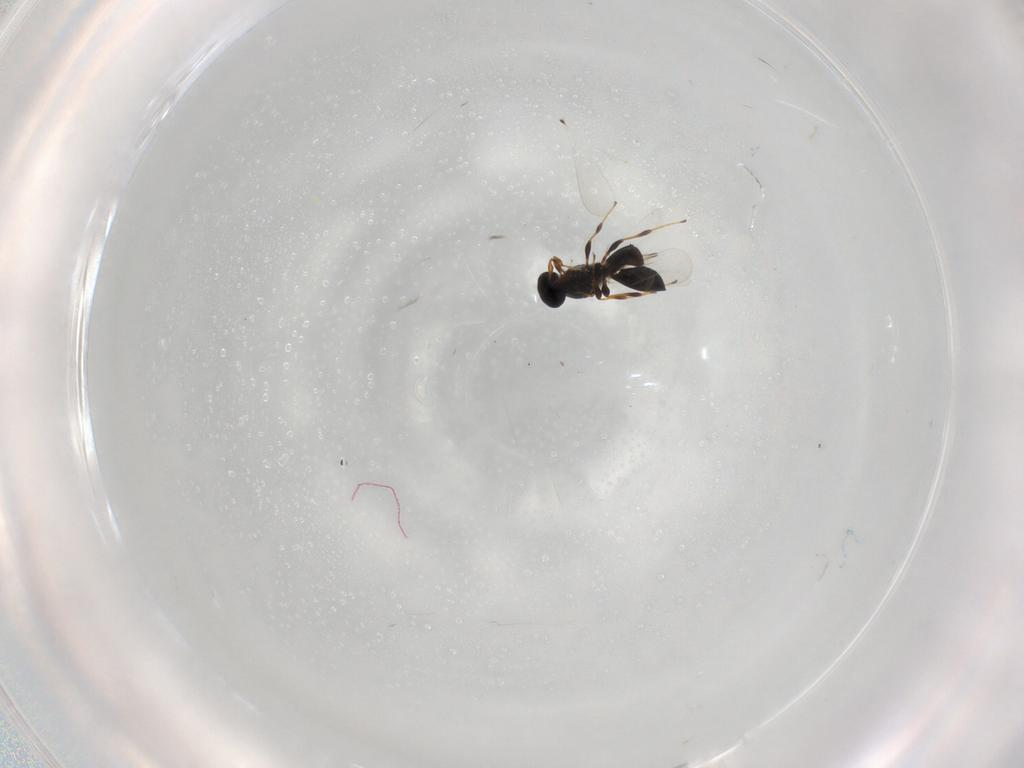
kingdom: Animalia
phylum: Arthropoda
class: Insecta
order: Hymenoptera
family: Platygastridae
